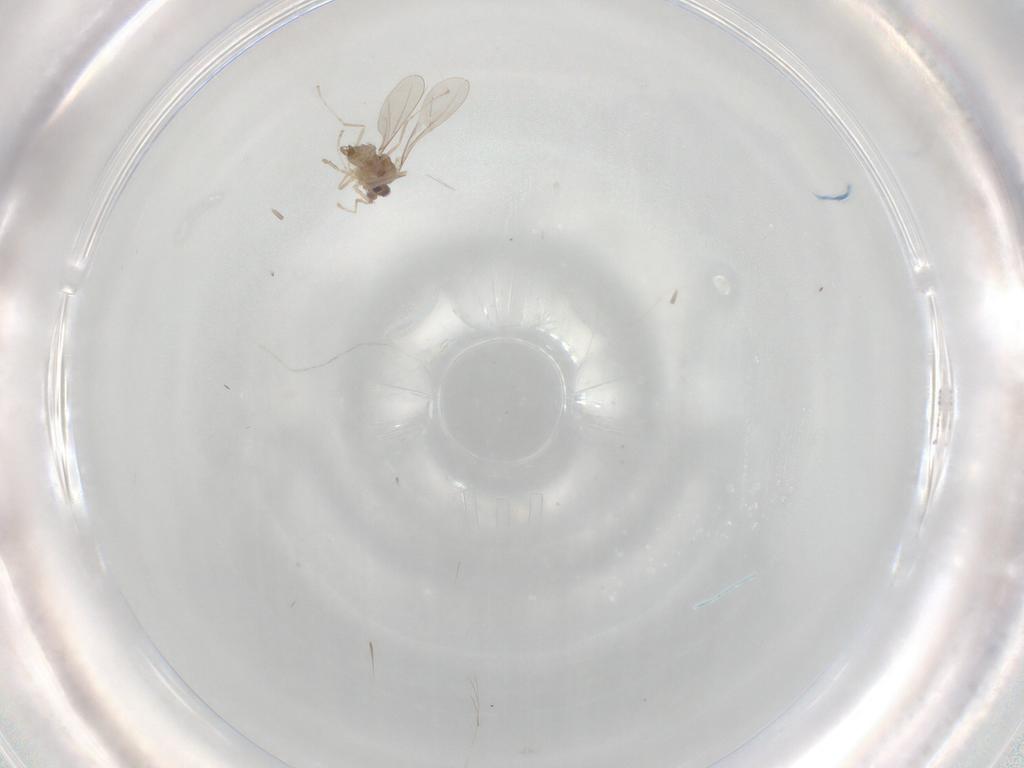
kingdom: Animalia
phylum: Arthropoda
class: Insecta
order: Diptera
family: Cecidomyiidae
